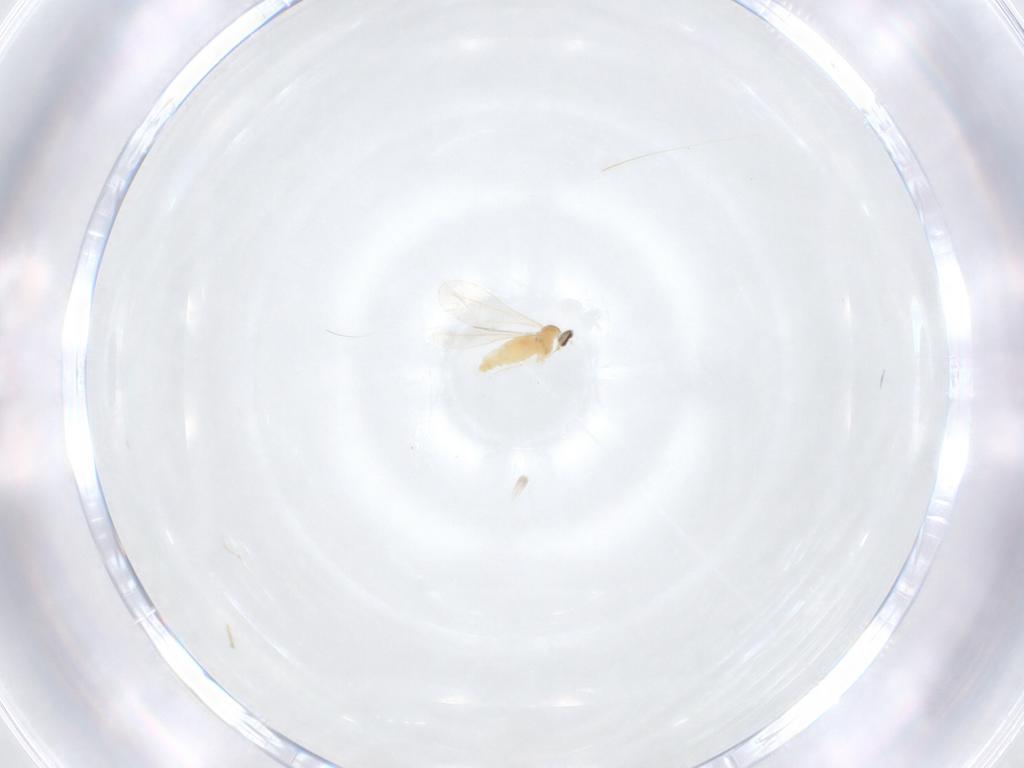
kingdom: Animalia
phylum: Arthropoda
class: Insecta
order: Diptera
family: Cecidomyiidae
